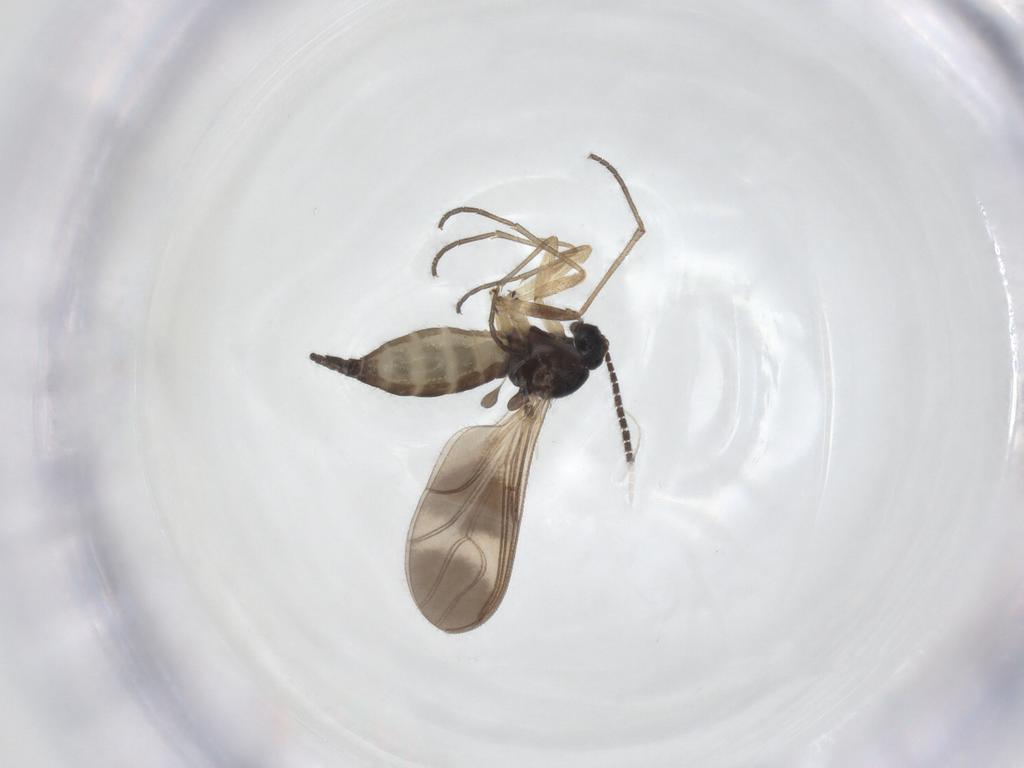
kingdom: Animalia
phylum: Arthropoda
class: Insecta
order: Diptera
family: Sciaridae
